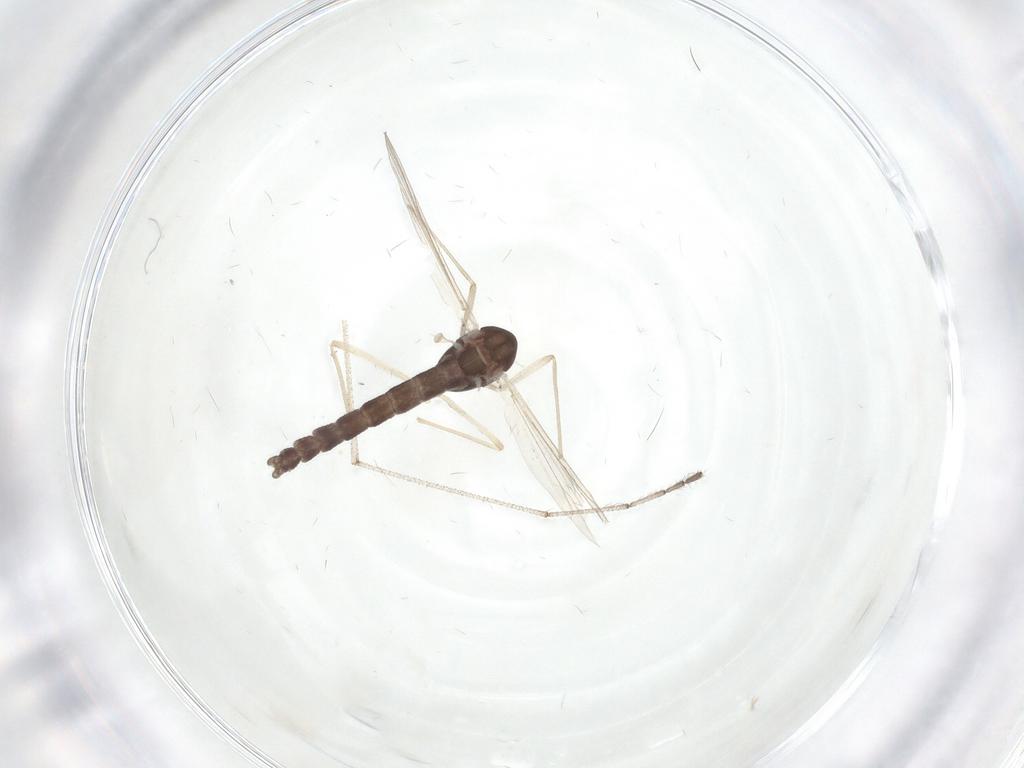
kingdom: Animalia
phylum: Arthropoda
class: Insecta
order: Diptera
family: Chironomidae
